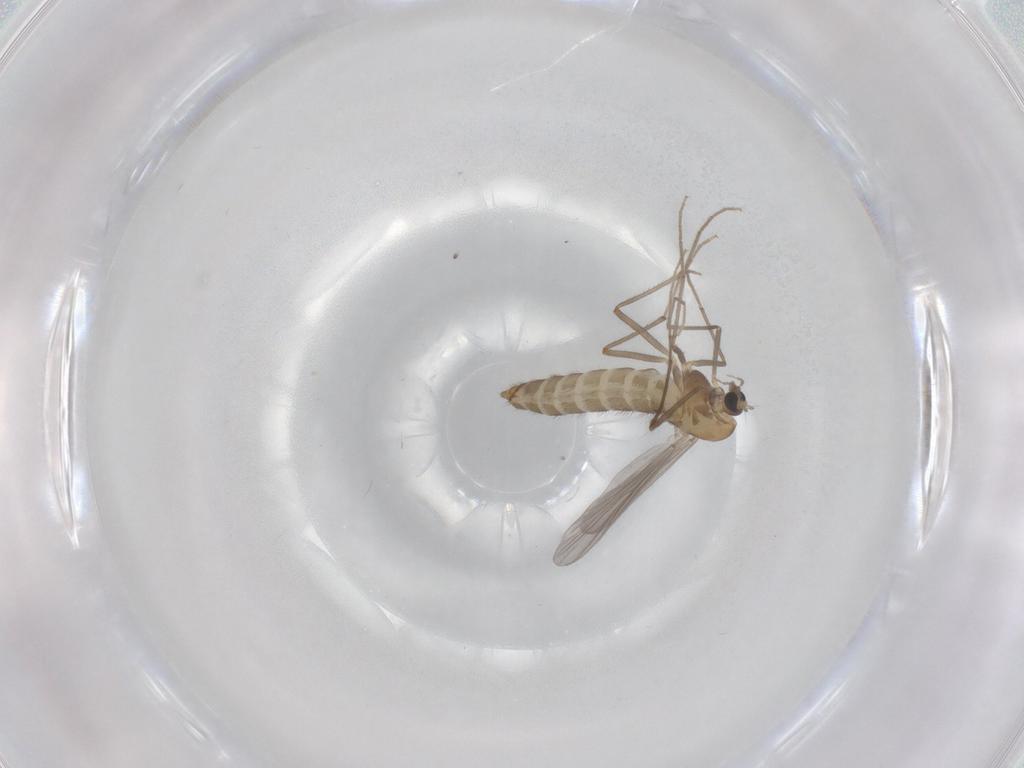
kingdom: Animalia
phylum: Arthropoda
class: Insecta
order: Diptera
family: Chironomidae
